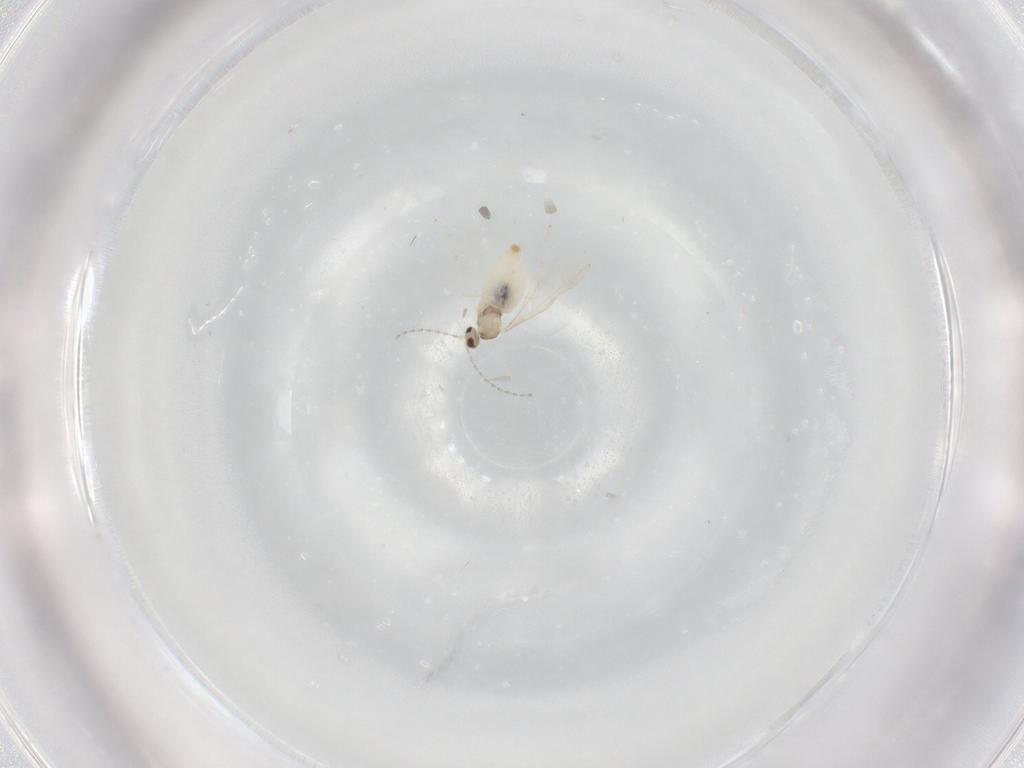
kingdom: Animalia
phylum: Arthropoda
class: Insecta
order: Diptera
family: Cecidomyiidae
